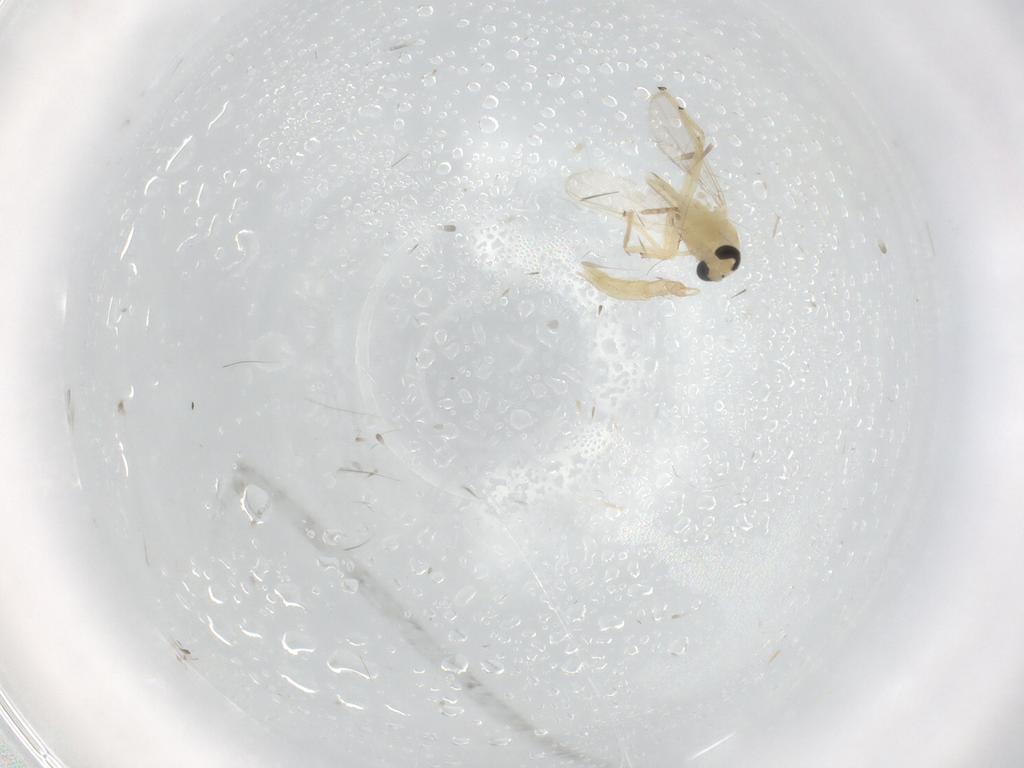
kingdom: Animalia
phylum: Arthropoda
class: Insecta
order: Diptera
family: Chironomidae
